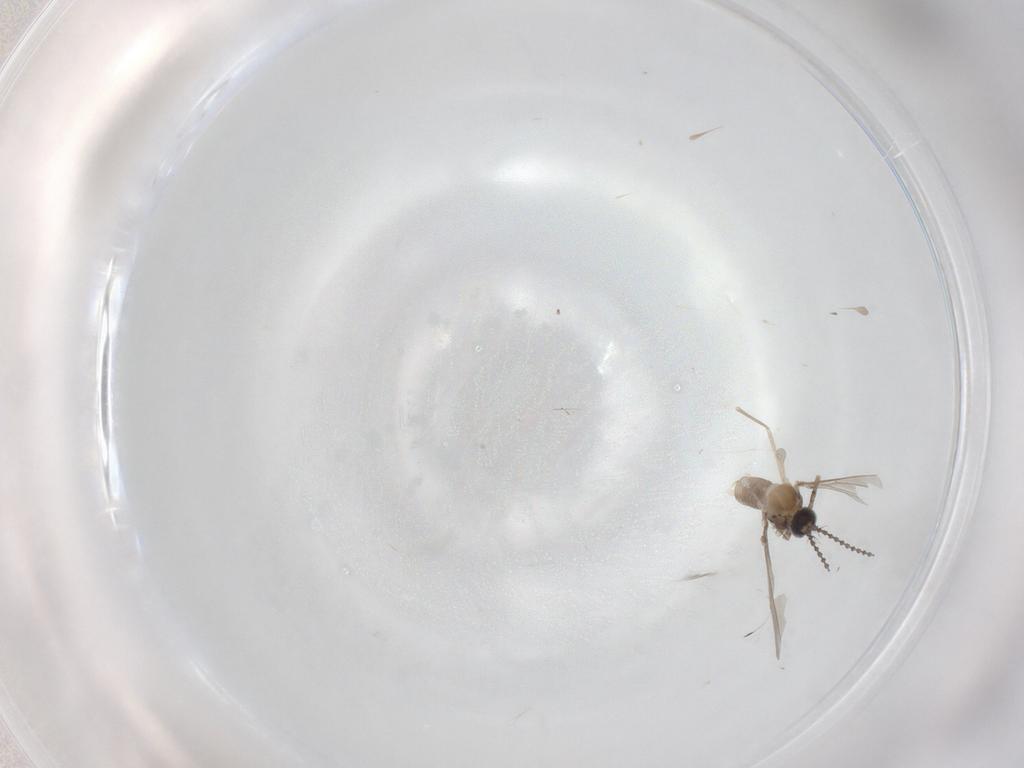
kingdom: Animalia
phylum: Arthropoda
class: Insecta
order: Diptera
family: Cecidomyiidae
